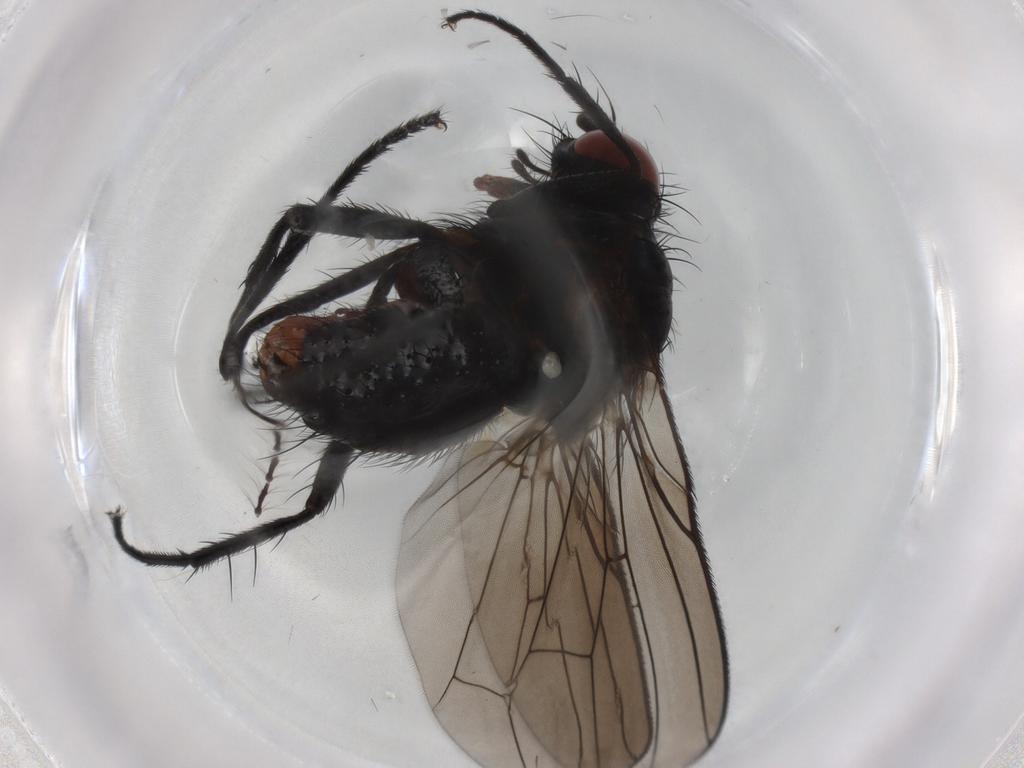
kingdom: Animalia
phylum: Arthropoda
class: Insecta
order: Diptera
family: Anthomyiidae
